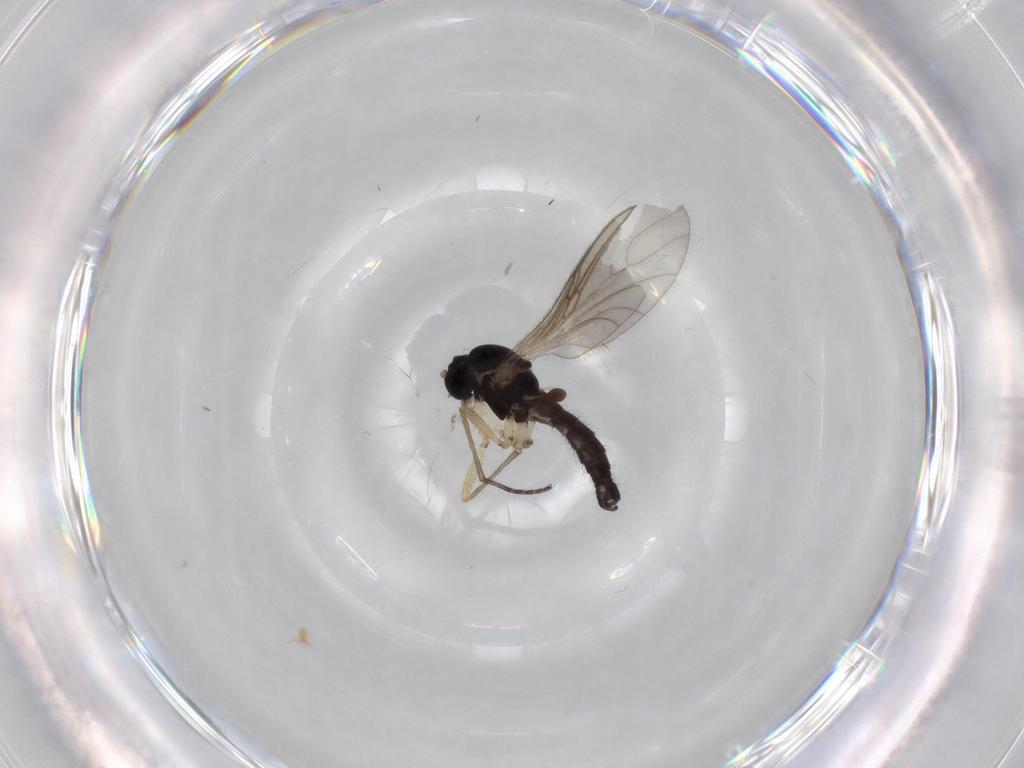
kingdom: Animalia
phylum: Arthropoda
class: Insecta
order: Diptera
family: Sciaridae
